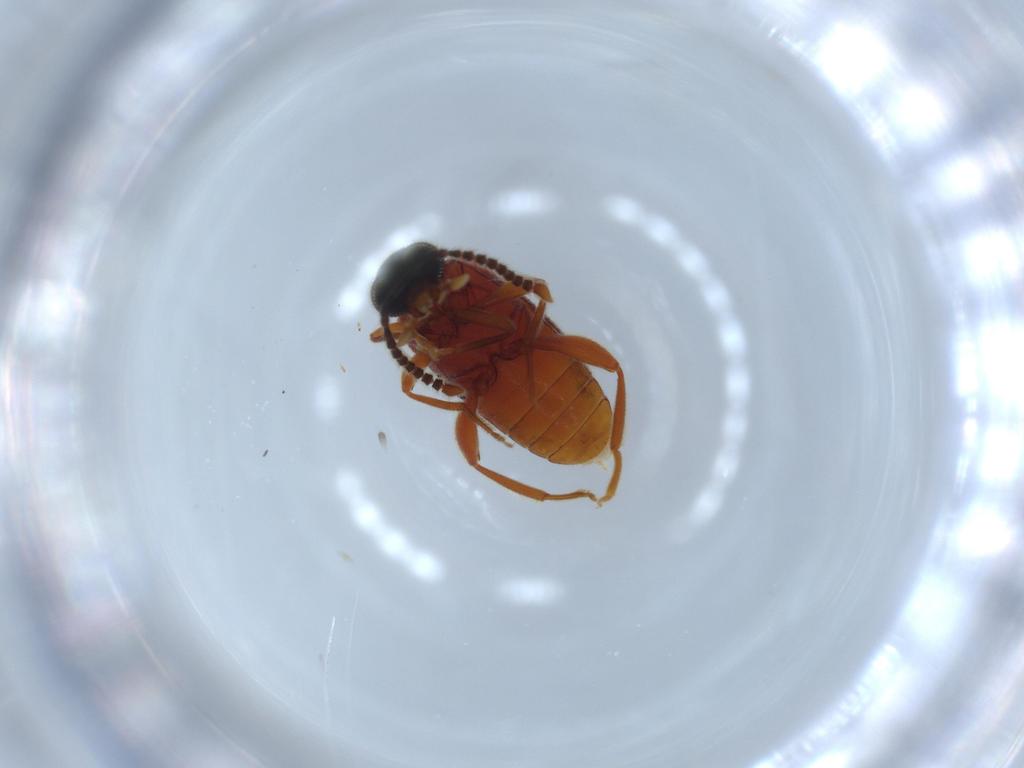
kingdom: Animalia
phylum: Arthropoda
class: Insecta
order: Coleoptera
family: Aderidae
